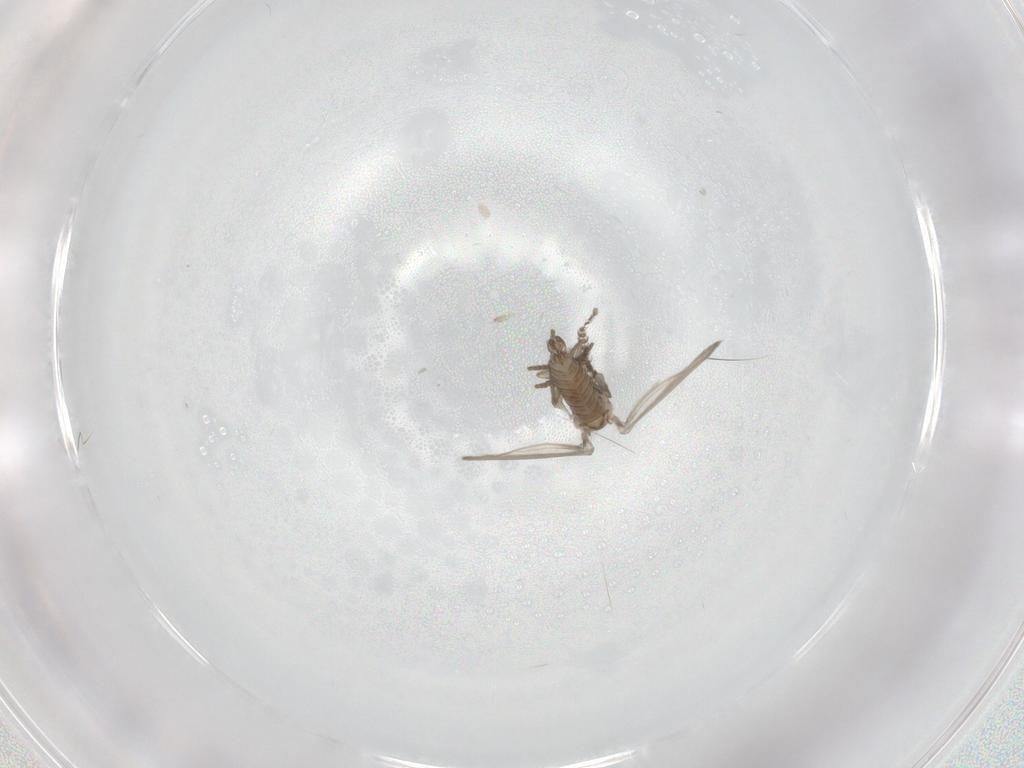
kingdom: Animalia
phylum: Arthropoda
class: Insecta
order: Diptera
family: Psychodidae
